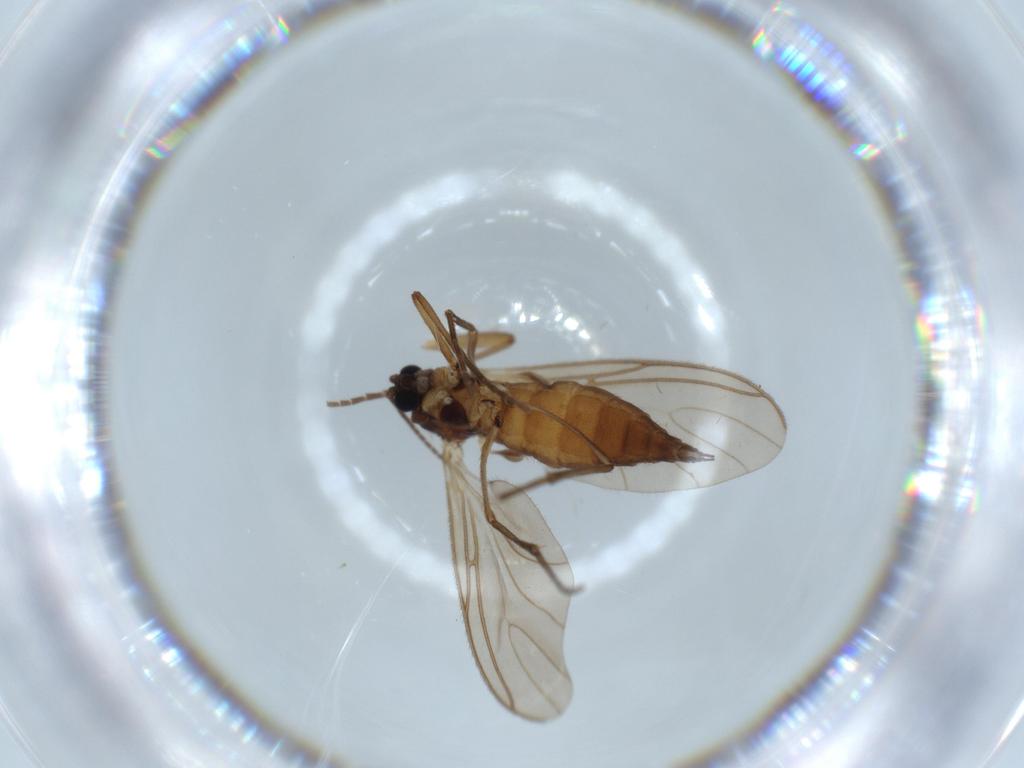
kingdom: Animalia
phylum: Arthropoda
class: Insecta
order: Diptera
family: Sciaridae
